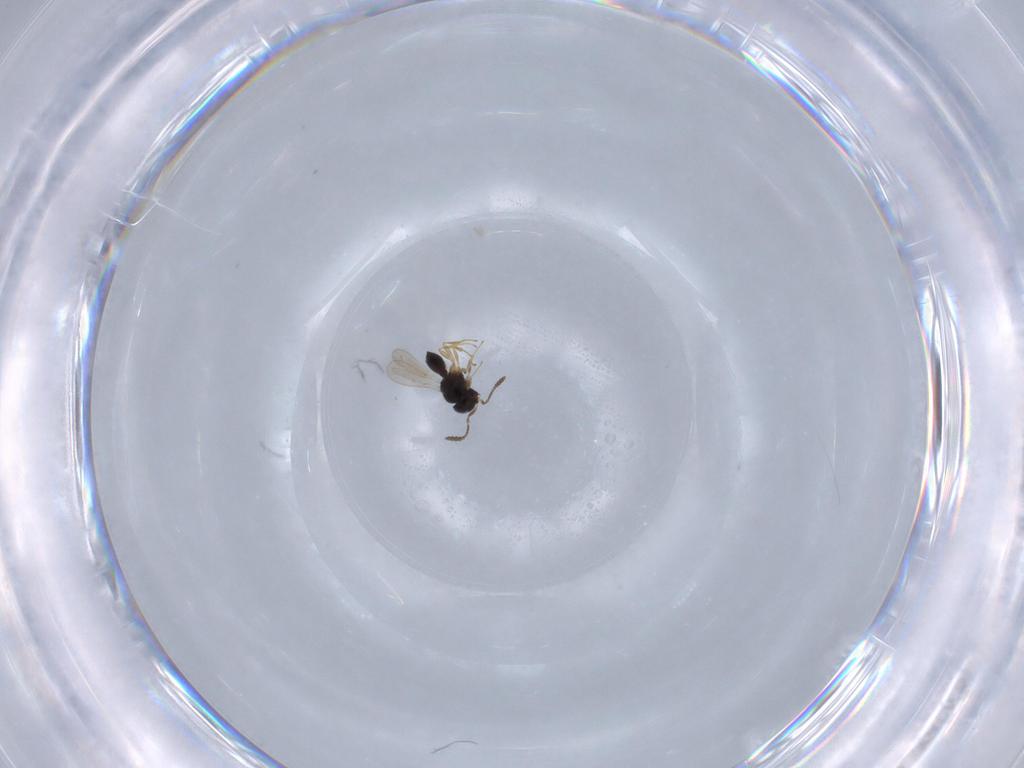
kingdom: Animalia
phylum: Arthropoda
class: Insecta
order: Hymenoptera
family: Scelionidae
